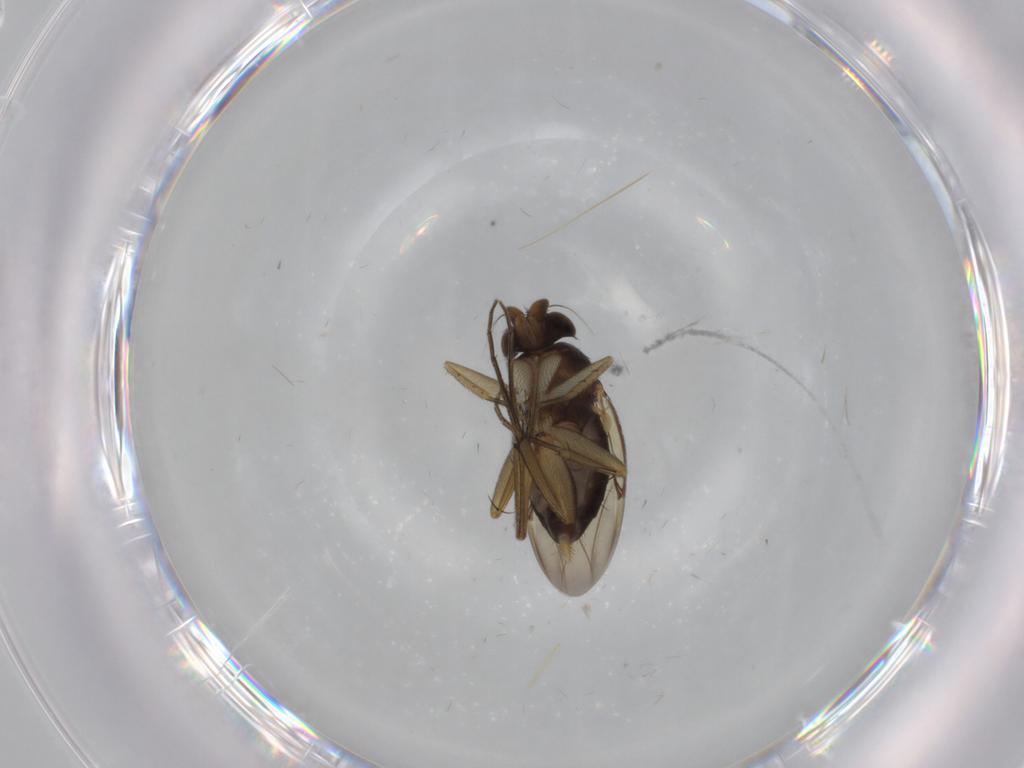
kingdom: Animalia
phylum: Arthropoda
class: Insecta
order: Diptera
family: Phoridae
